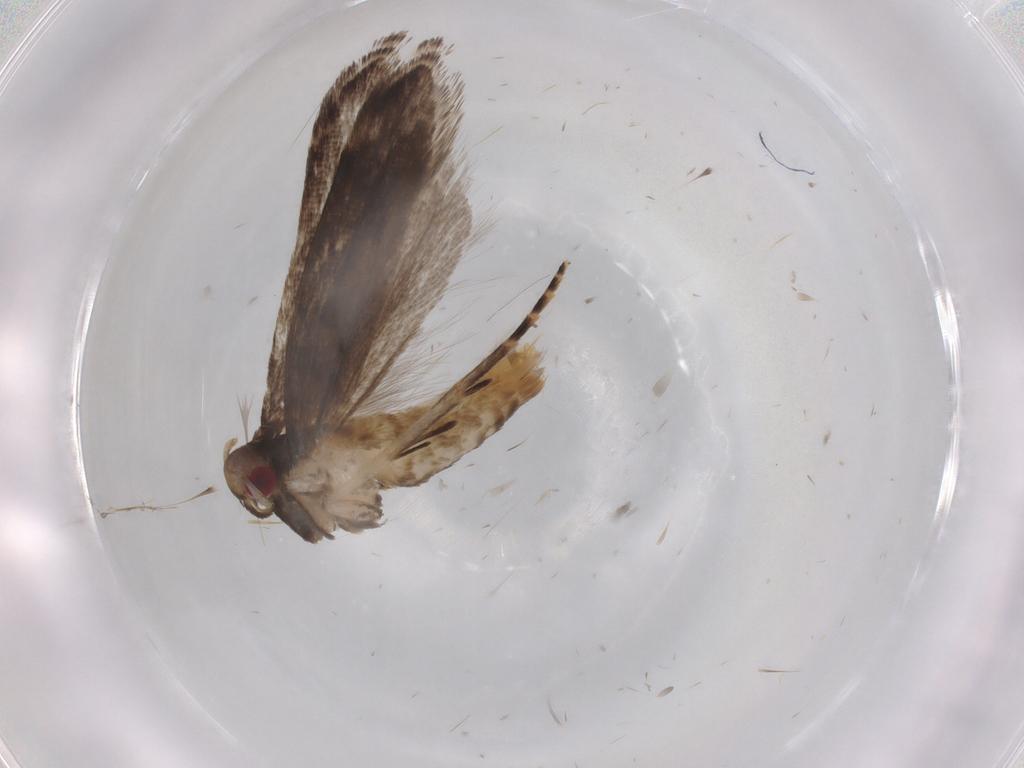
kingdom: Animalia
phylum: Arthropoda
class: Insecta
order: Lepidoptera
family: Gelechiidae
